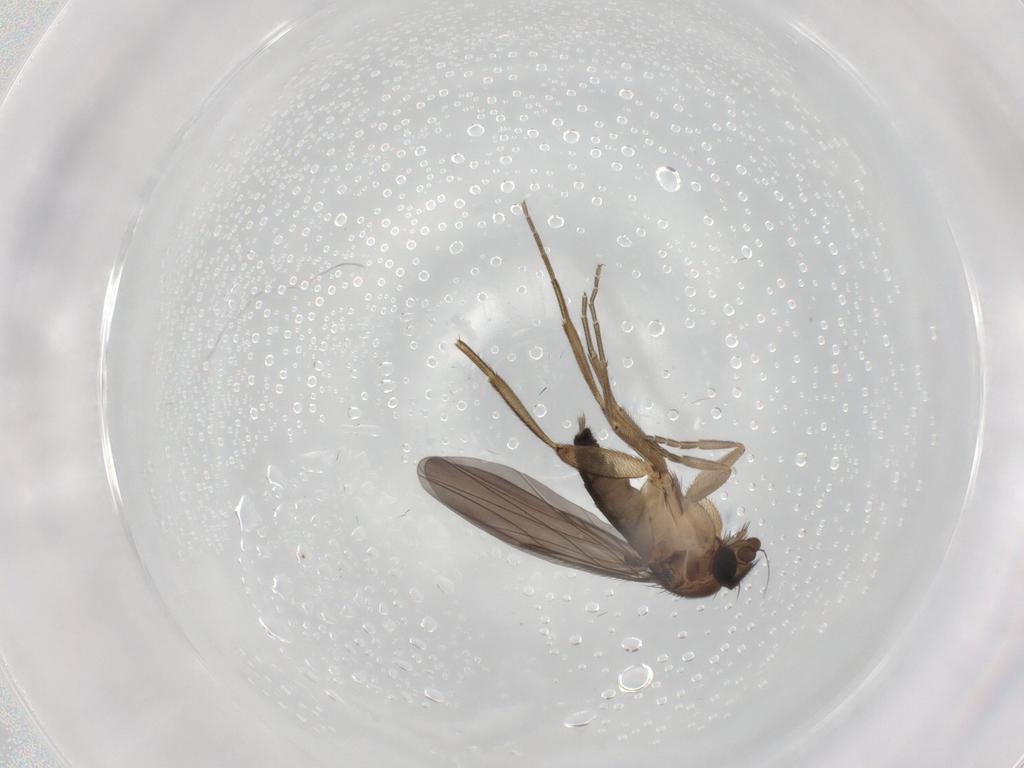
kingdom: Animalia
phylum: Arthropoda
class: Insecta
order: Diptera
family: Phoridae
